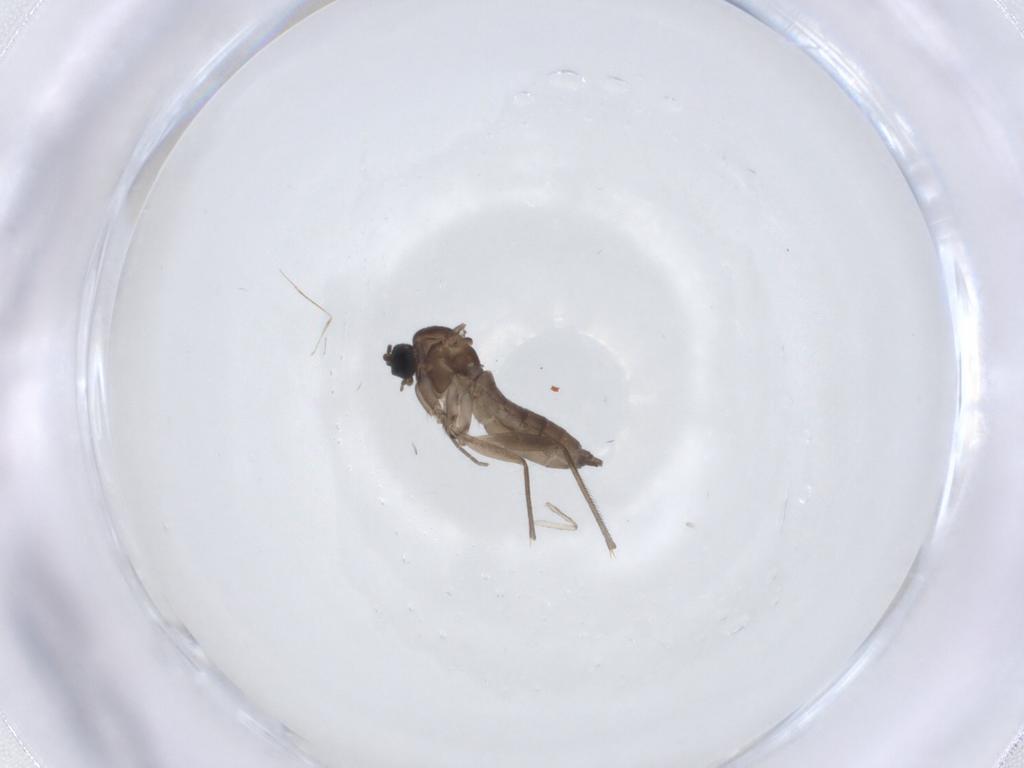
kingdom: Animalia
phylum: Arthropoda
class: Insecta
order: Diptera
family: Sciaridae
